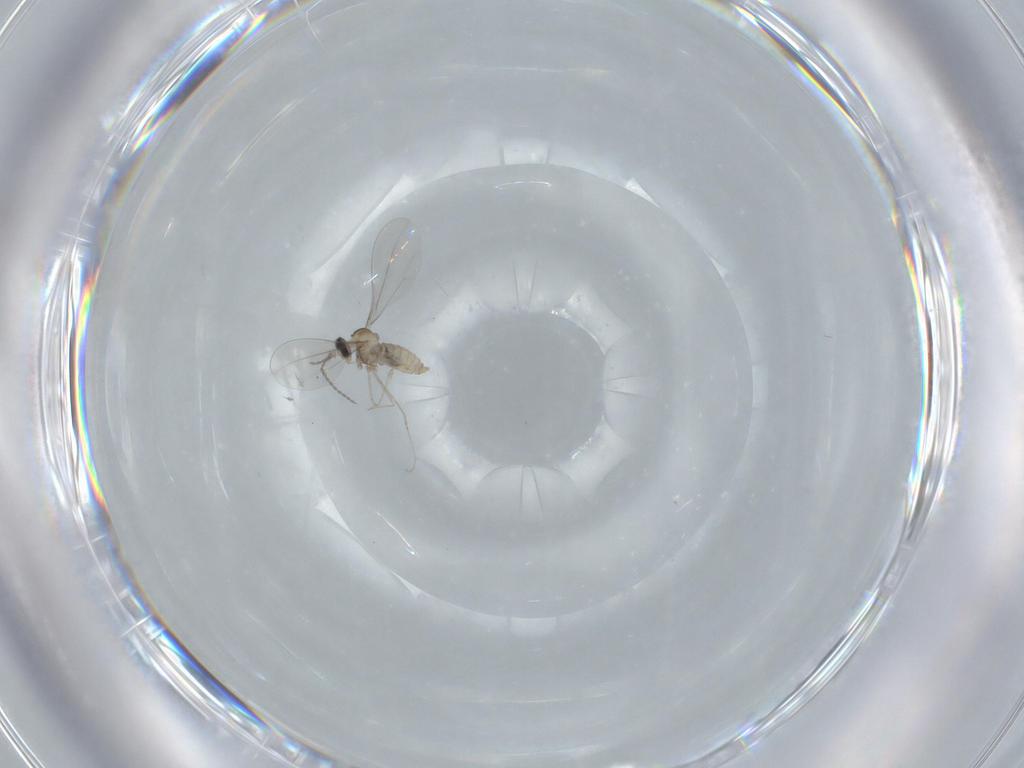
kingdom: Animalia
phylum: Arthropoda
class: Insecta
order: Diptera
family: Cecidomyiidae
